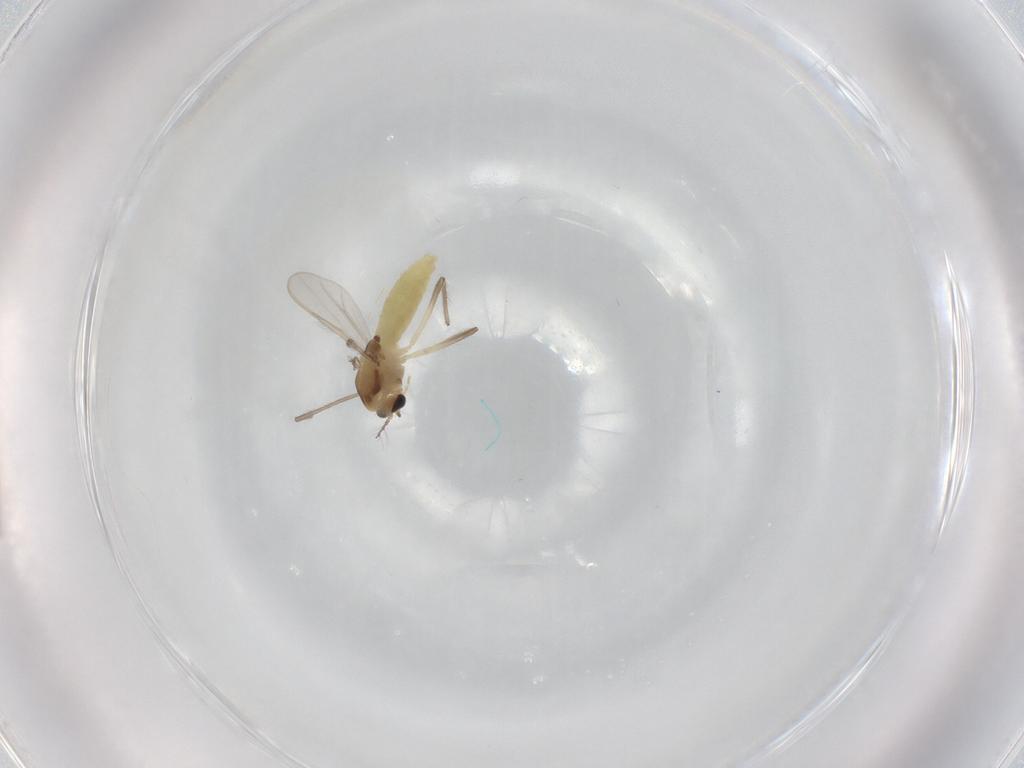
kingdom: Animalia
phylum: Arthropoda
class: Insecta
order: Diptera
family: Chironomidae
